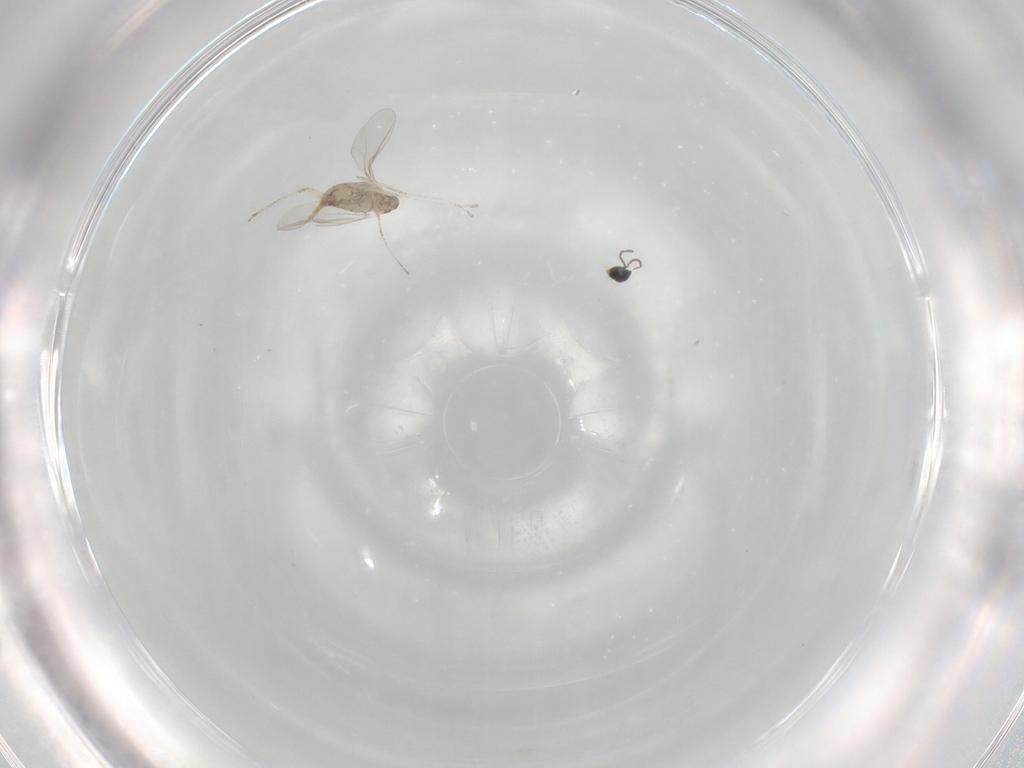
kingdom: Animalia
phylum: Arthropoda
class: Insecta
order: Diptera
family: Cecidomyiidae
